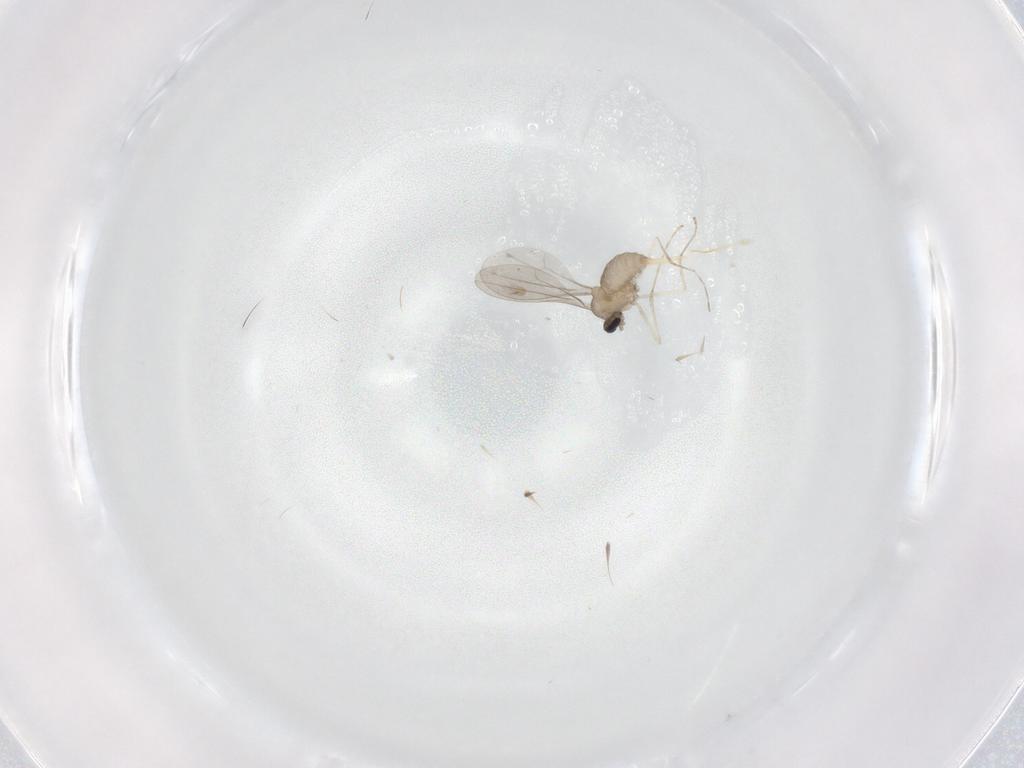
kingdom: Animalia
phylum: Arthropoda
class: Insecta
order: Diptera
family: Cecidomyiidae
